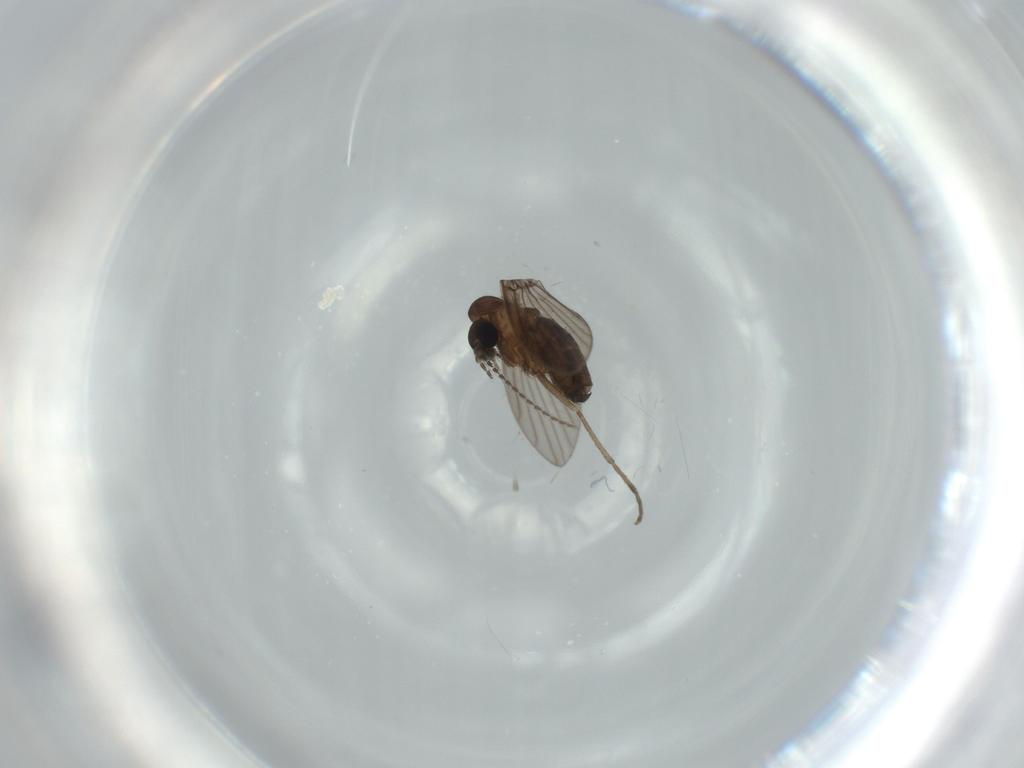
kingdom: Animalia
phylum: Arthropoda
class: Insecta
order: Diptera
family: Psychodidae
